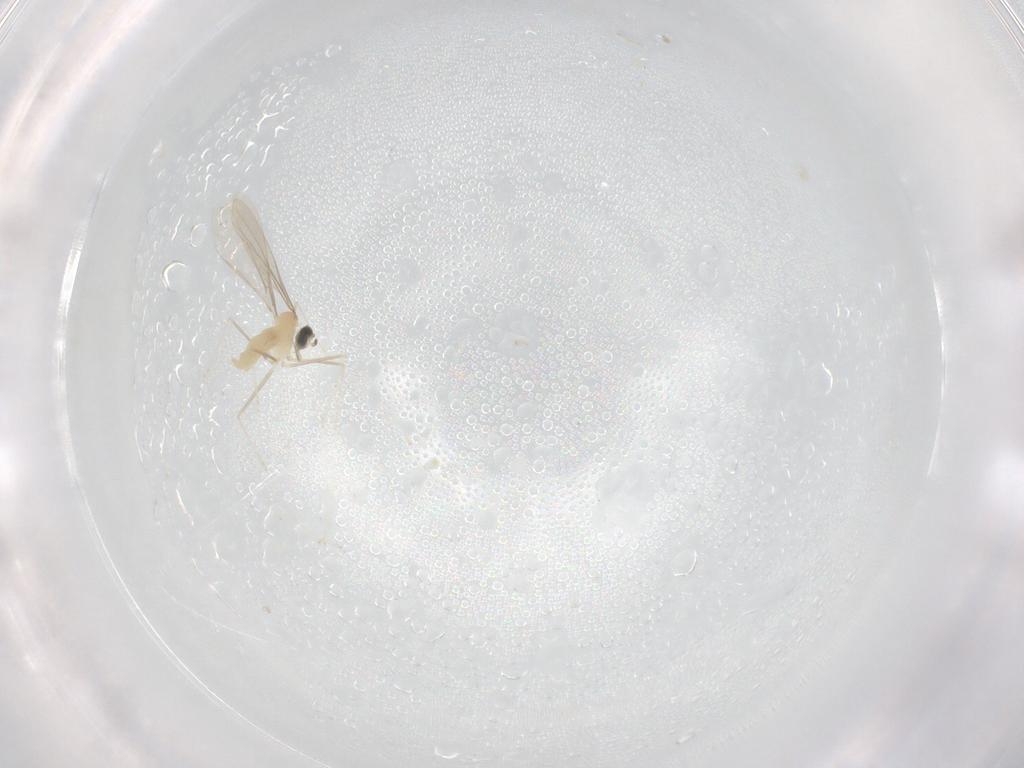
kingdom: Animalia
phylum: Arthropoda
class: Insecta
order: Diptera
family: Cecidomyiidae
